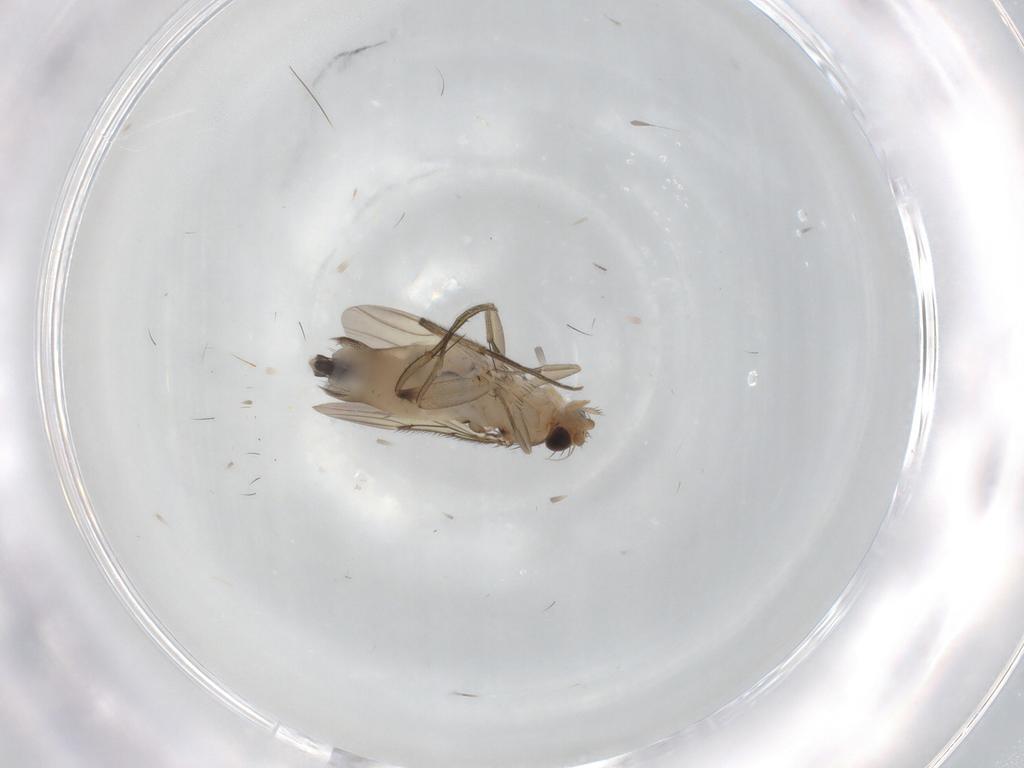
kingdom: Animalia
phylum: Arthropoda
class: Insecta
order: Diptera
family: Phoridae
